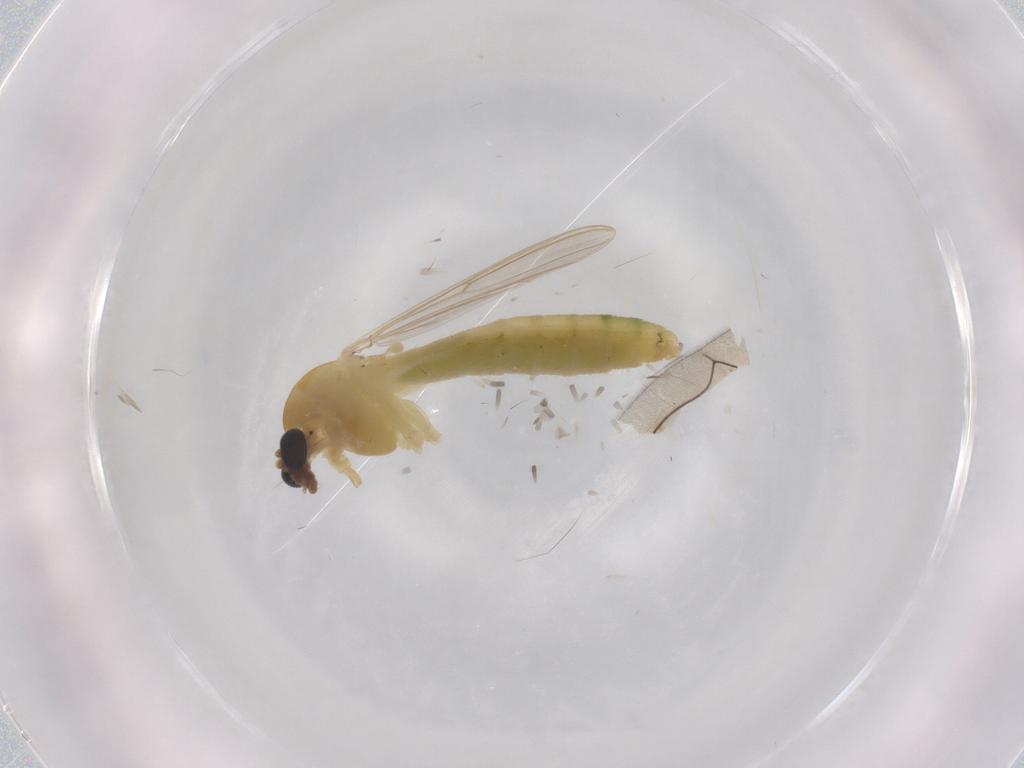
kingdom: Animalia
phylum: Arthropoda
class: Insecta
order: Diptera
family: Chironomidae
